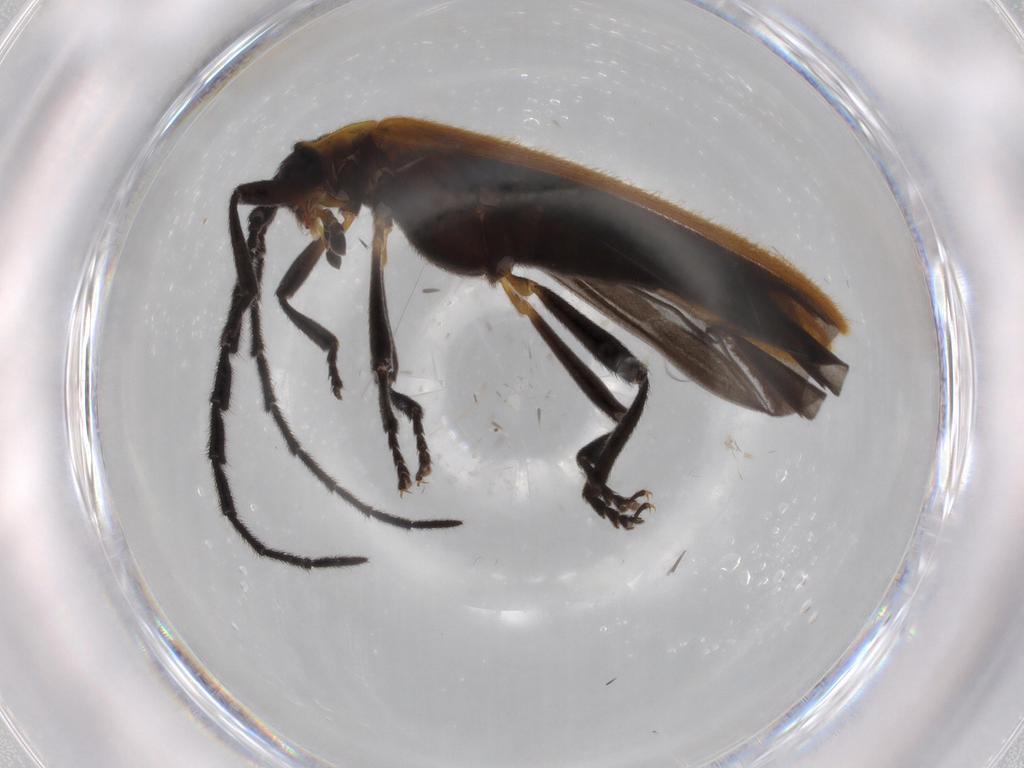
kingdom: Animalia
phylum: Arthropoda
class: Insecta
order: Coleoptera
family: Lycidae
